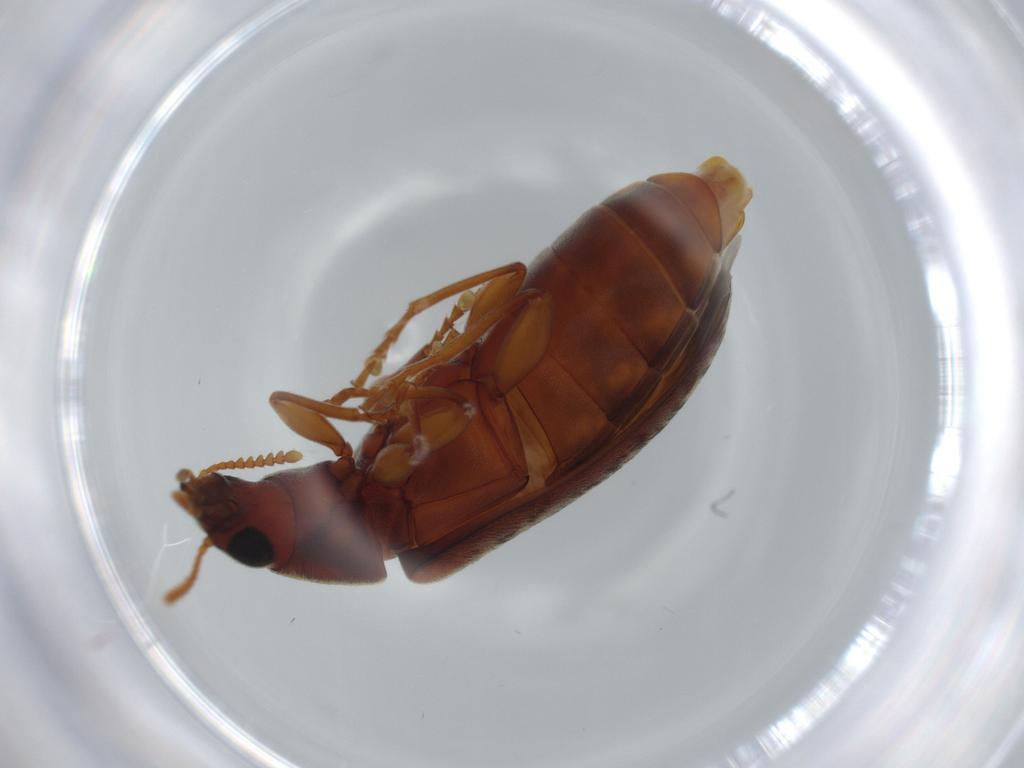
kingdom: Animalia
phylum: Arthropoda
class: Insecta
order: Coleoptera
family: Mycteridae
